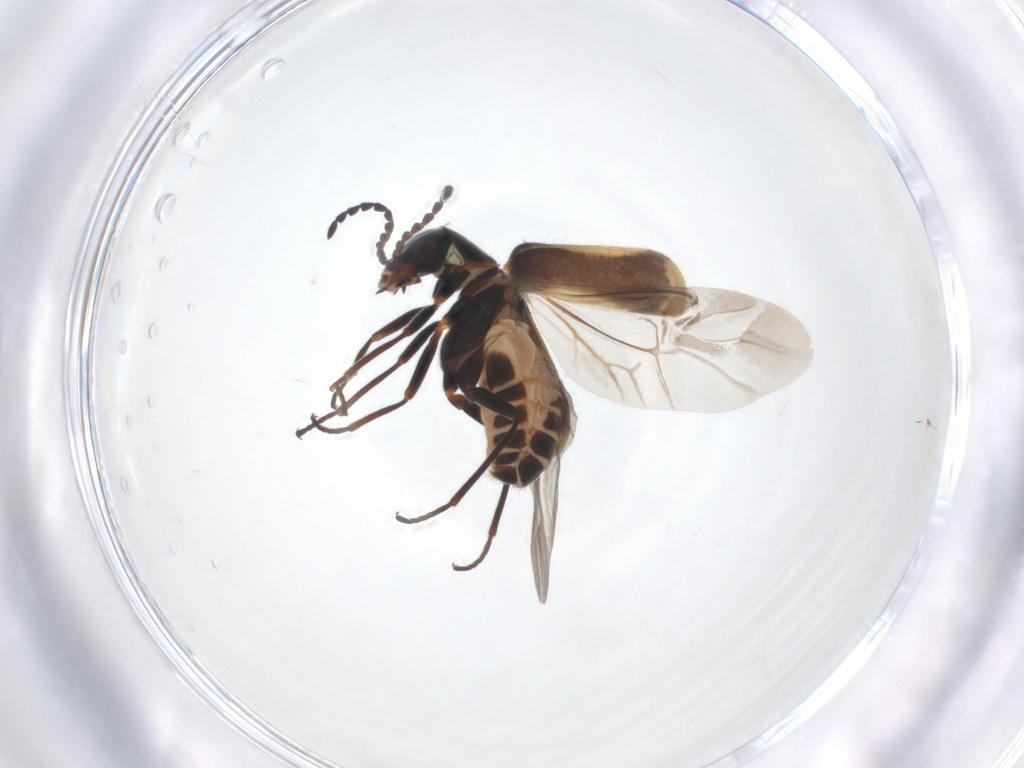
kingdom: Animalia
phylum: Arthropoda
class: Insecta
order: Coleoptera
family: Melyridae
